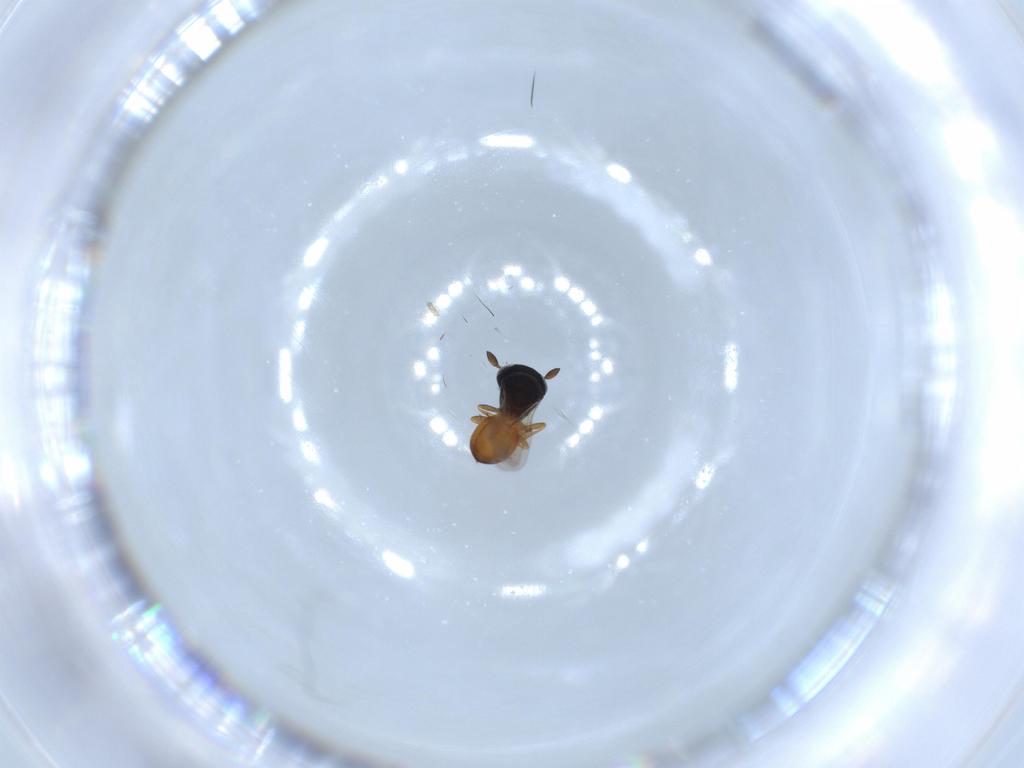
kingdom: Animalia
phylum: Arthropoda
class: Insecta
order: Hymenoptera
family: Scelionidae
